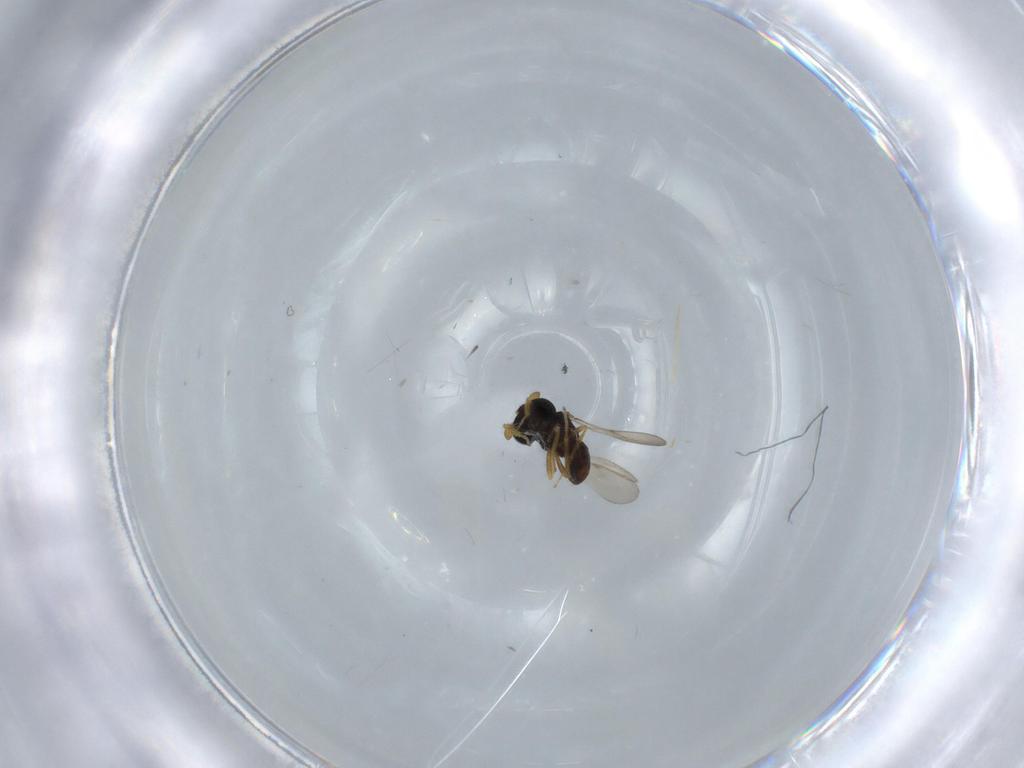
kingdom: Animalia
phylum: Arthropoda
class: Insecta
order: Hymenoptera
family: Scelionidae
